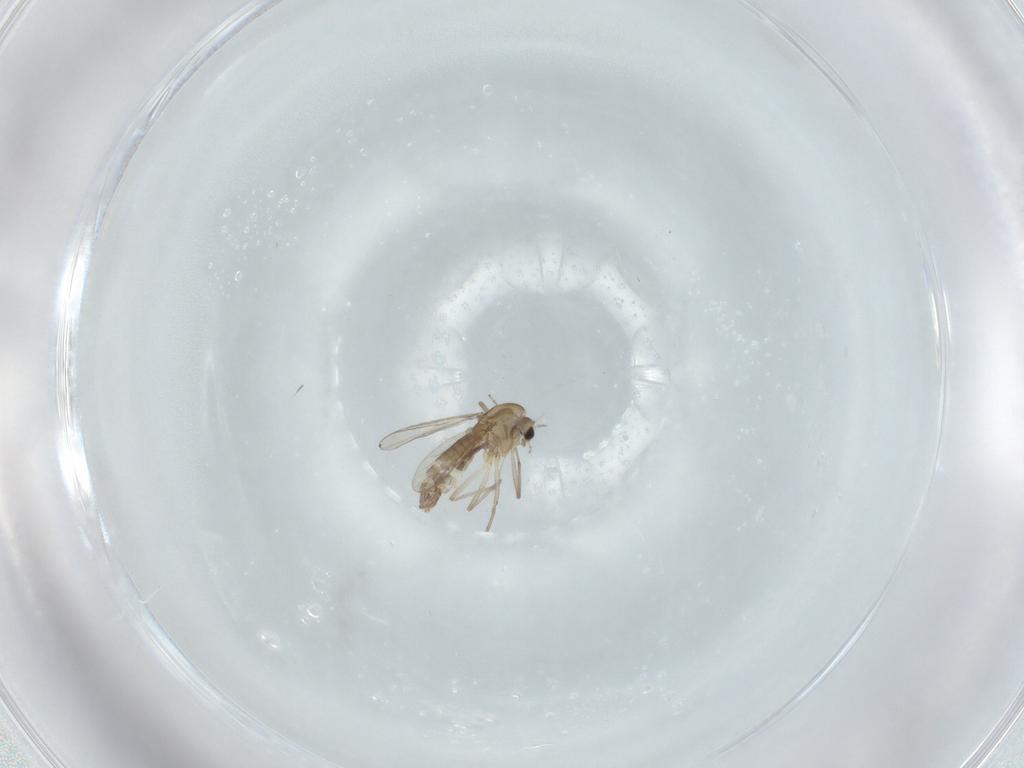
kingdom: Animalia
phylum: Arthropoda
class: Insecta
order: Diptera
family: Chironomidae
